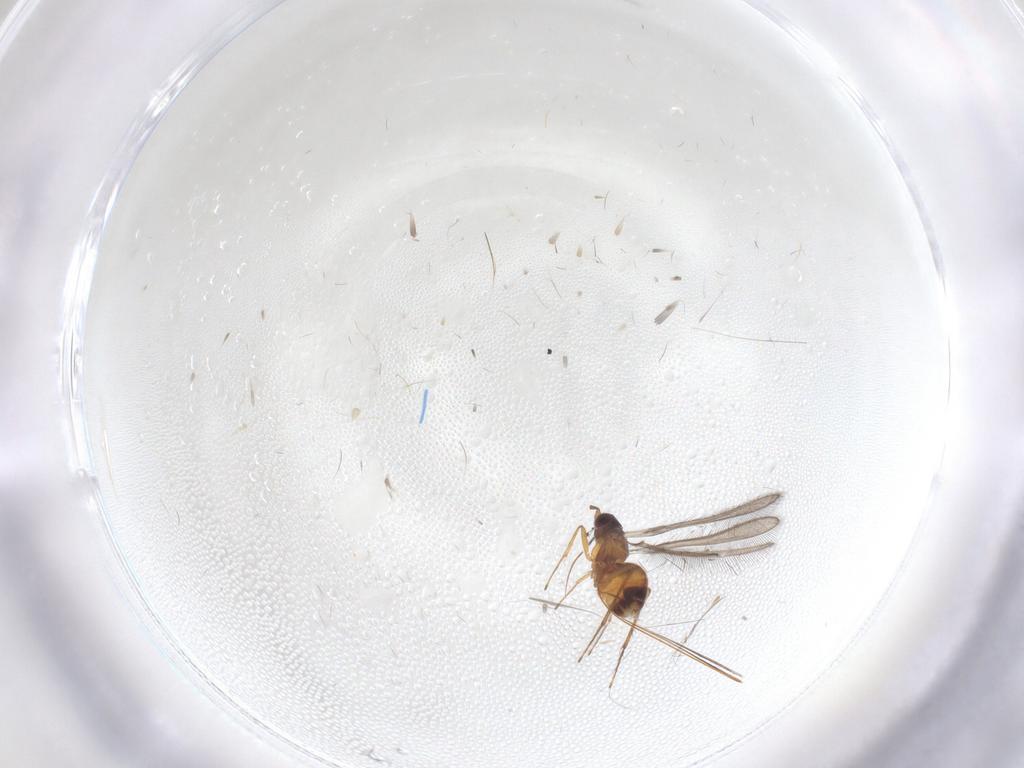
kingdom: Animalia
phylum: Arthropoda
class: Insecta
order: Hymenoptera
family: Mymaridae
